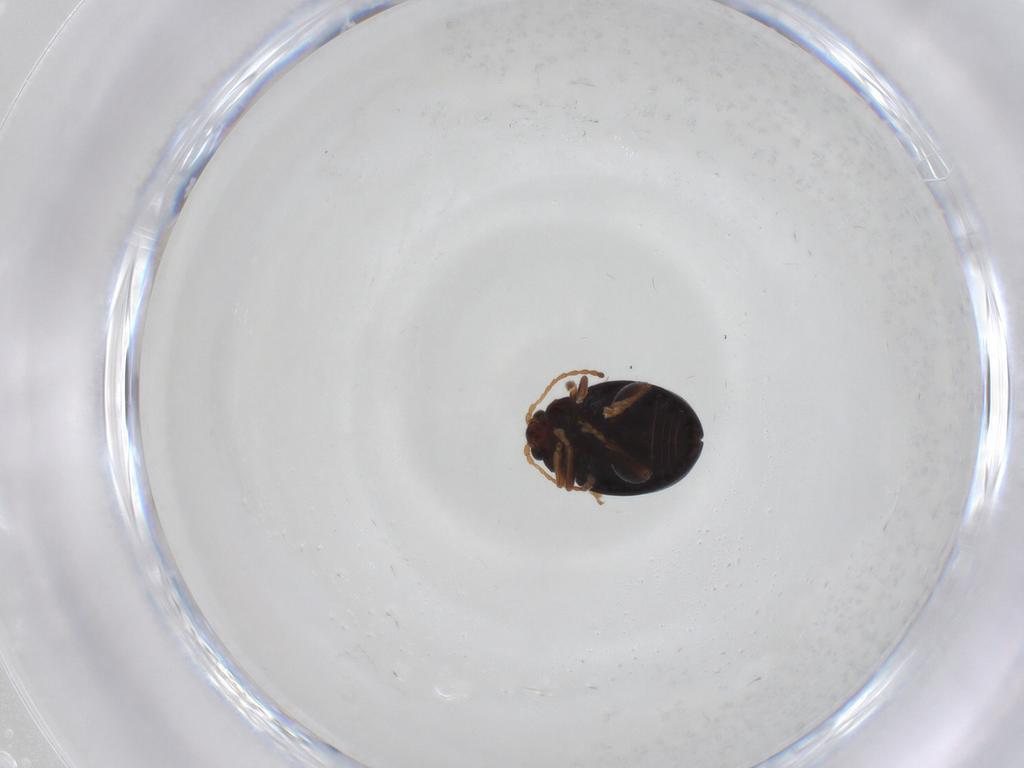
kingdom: Animalia
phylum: Arthropoda
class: Insecta
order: Coleoptera
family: Chrysomelidae
